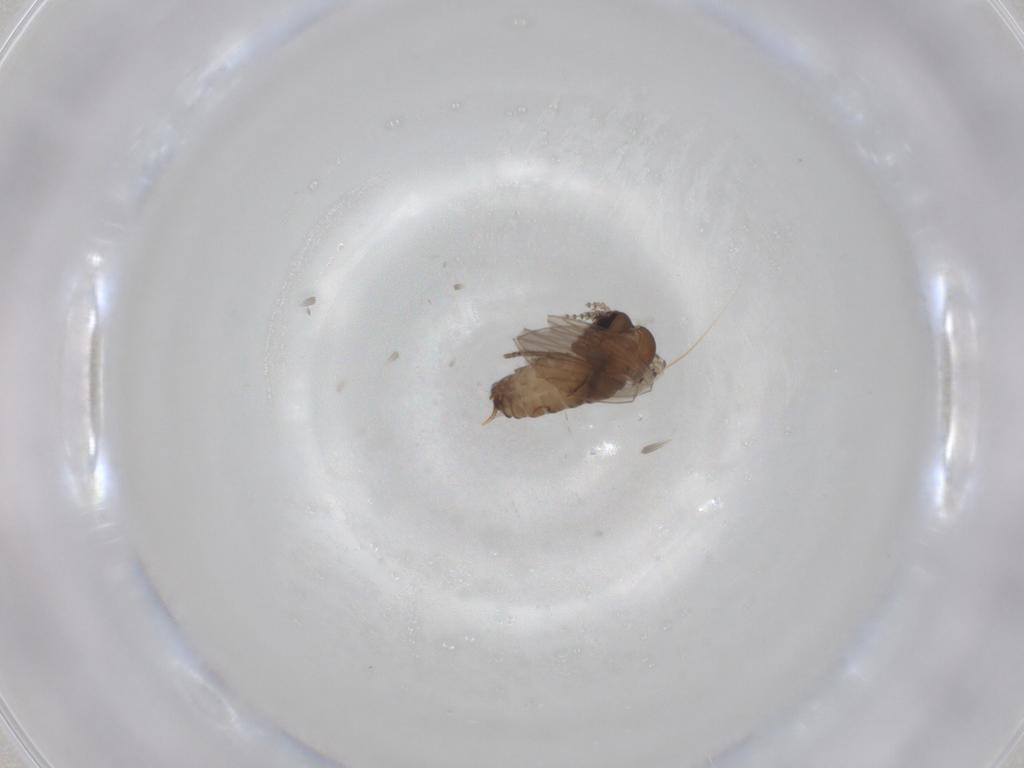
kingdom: Animalia
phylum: Arthropoda
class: Insecta
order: Diptera
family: Psychodidae
